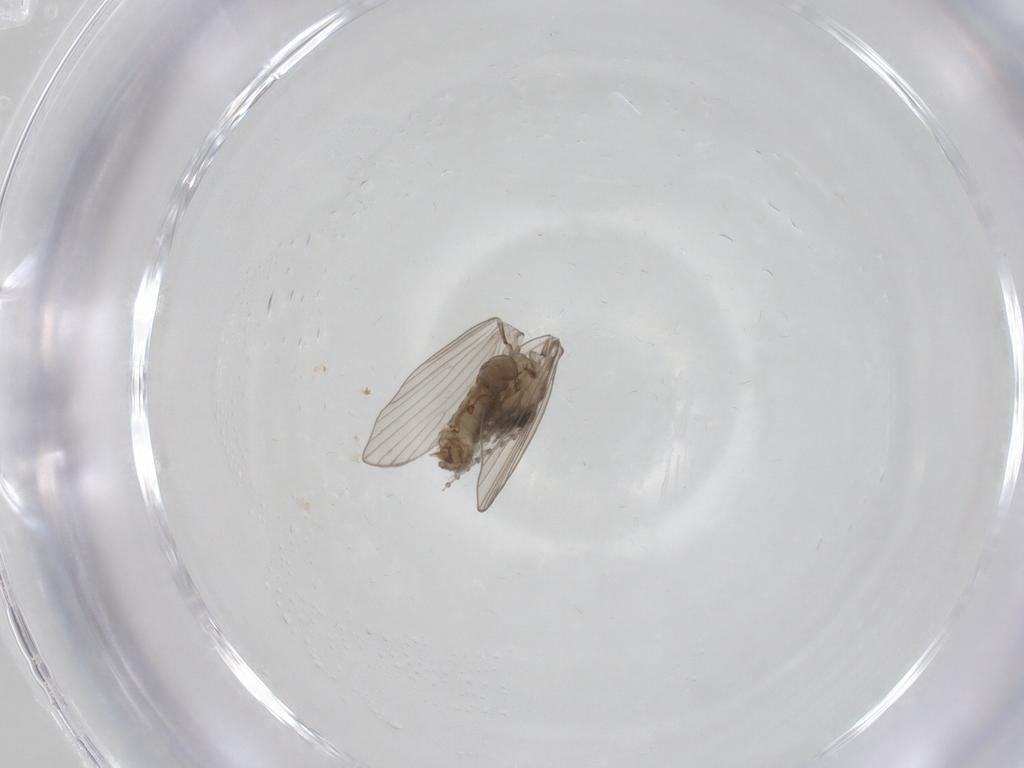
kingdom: Animalia
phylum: Arthropoda
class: Insecta
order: Diptera
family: Psychodidae
